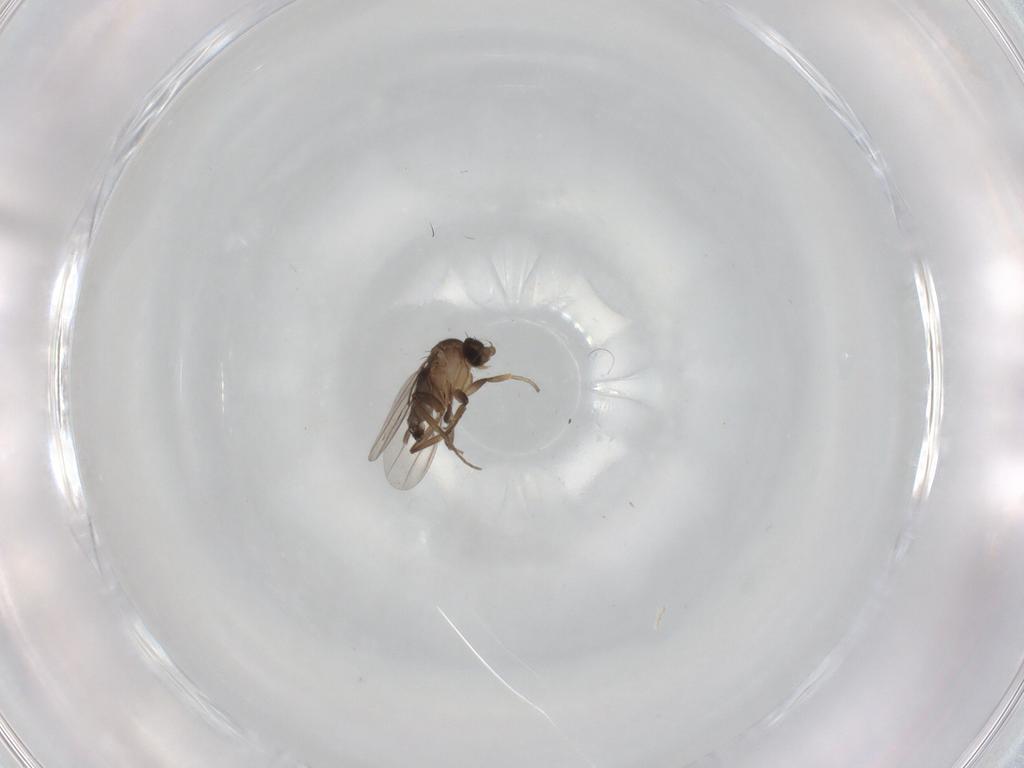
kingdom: Animalia
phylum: Arthropoda
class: Insecta
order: Diptera
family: Phoridae
